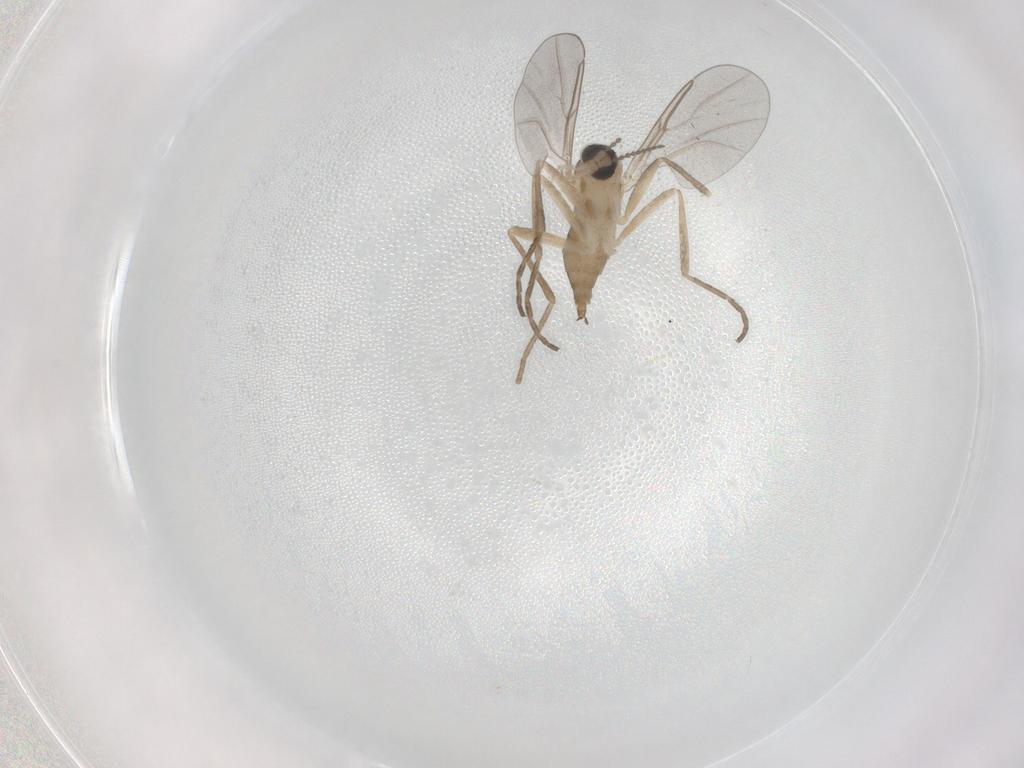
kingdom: Animalia
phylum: Arthropoda
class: Insecta
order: Diptera
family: Cecidomyiidae
